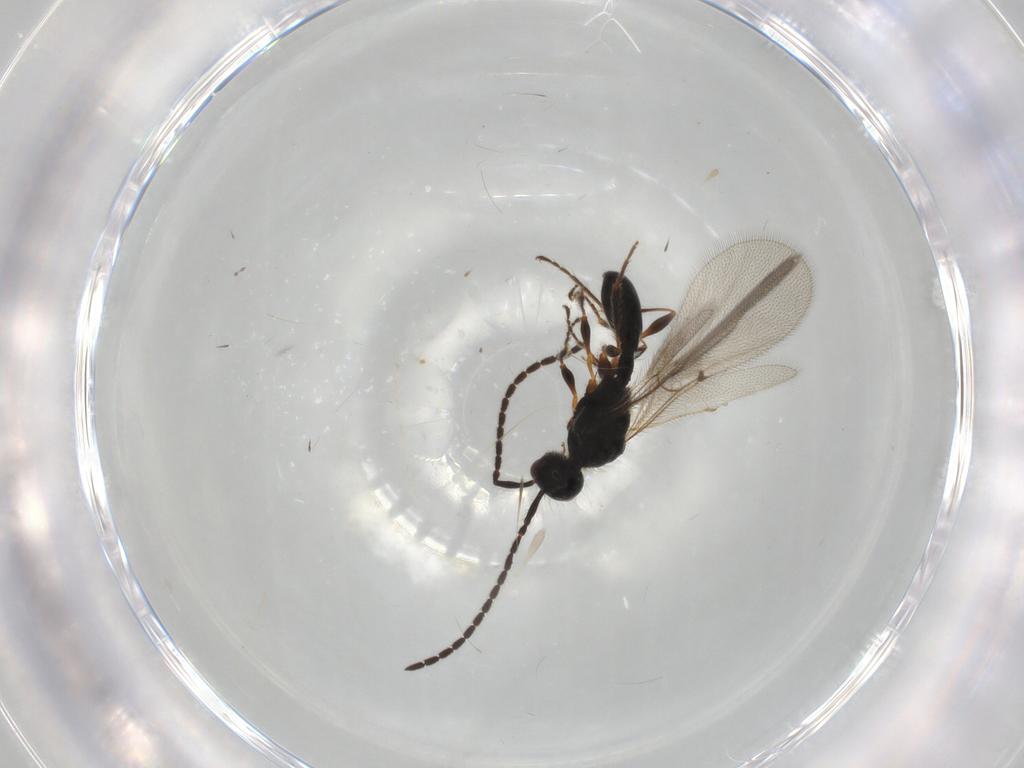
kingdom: Animalia
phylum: Arthropoda
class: Insecta
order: Hymenoptera
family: Diapriidae
